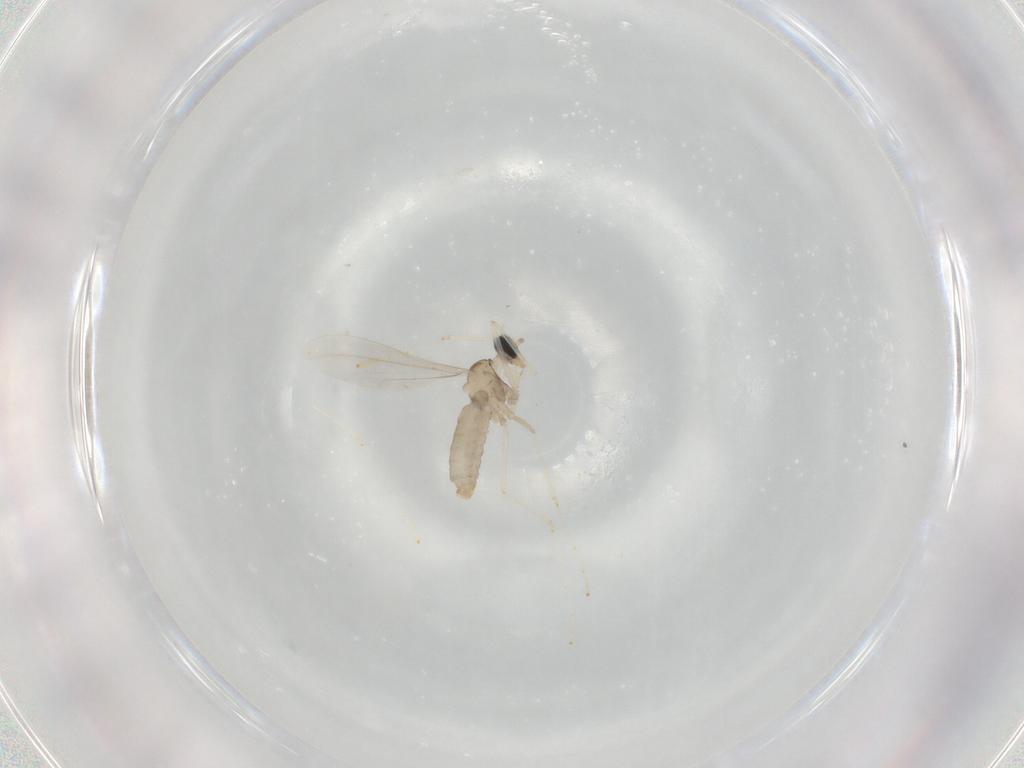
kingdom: Animalia
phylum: Arthropoda
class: Insecta
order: Diptera
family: Cecidomyiidae
